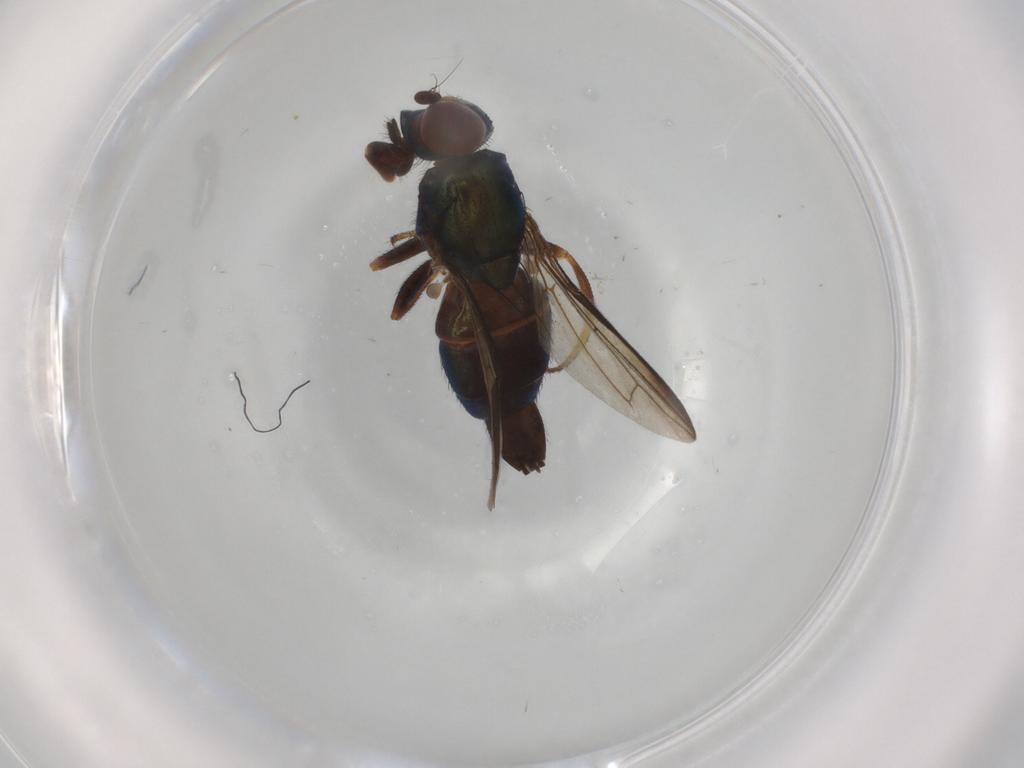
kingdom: Animalia
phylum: Arthropoda
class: Insecta
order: Diptera
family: Ulidiidae
